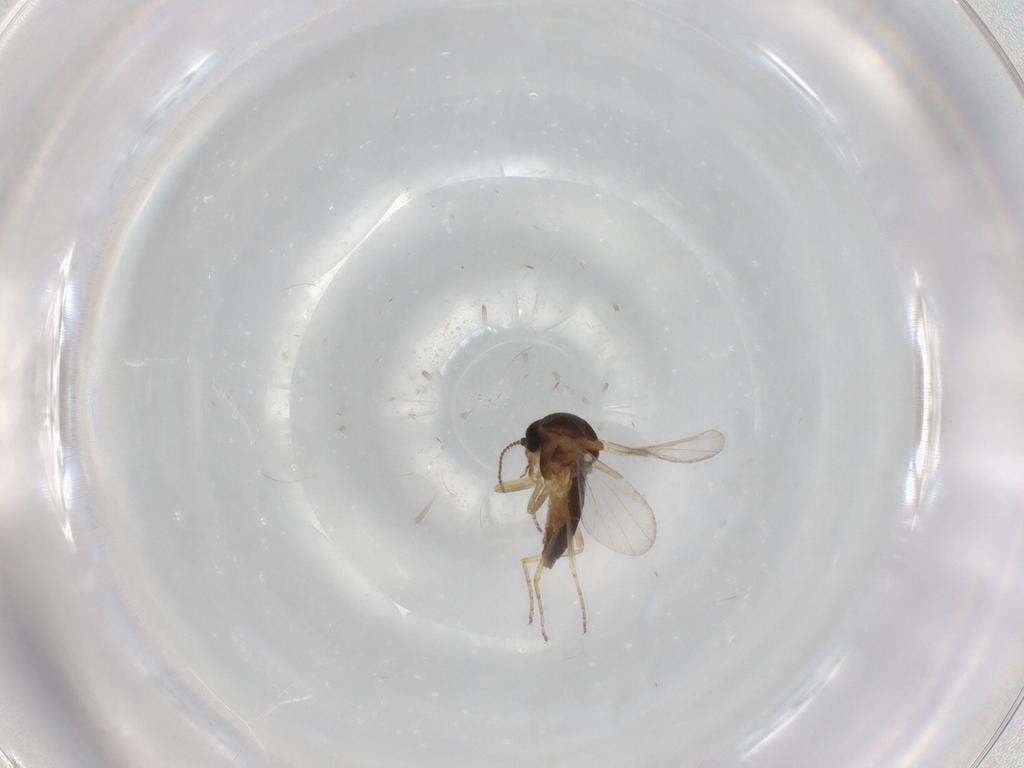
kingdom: Animalia
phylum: Arthropoda
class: Insecta
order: Diptera
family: Ceratopogonidae
